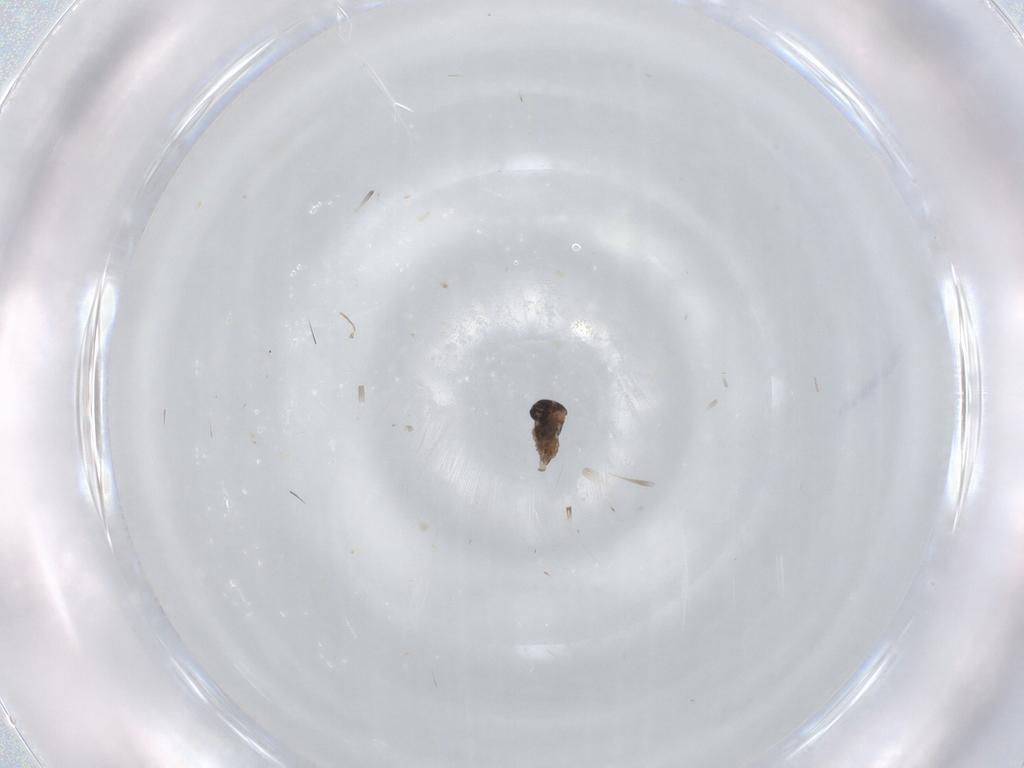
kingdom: Animalia
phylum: Arthropoda
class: Insecta
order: Diptera
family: Cecidomyiidae
